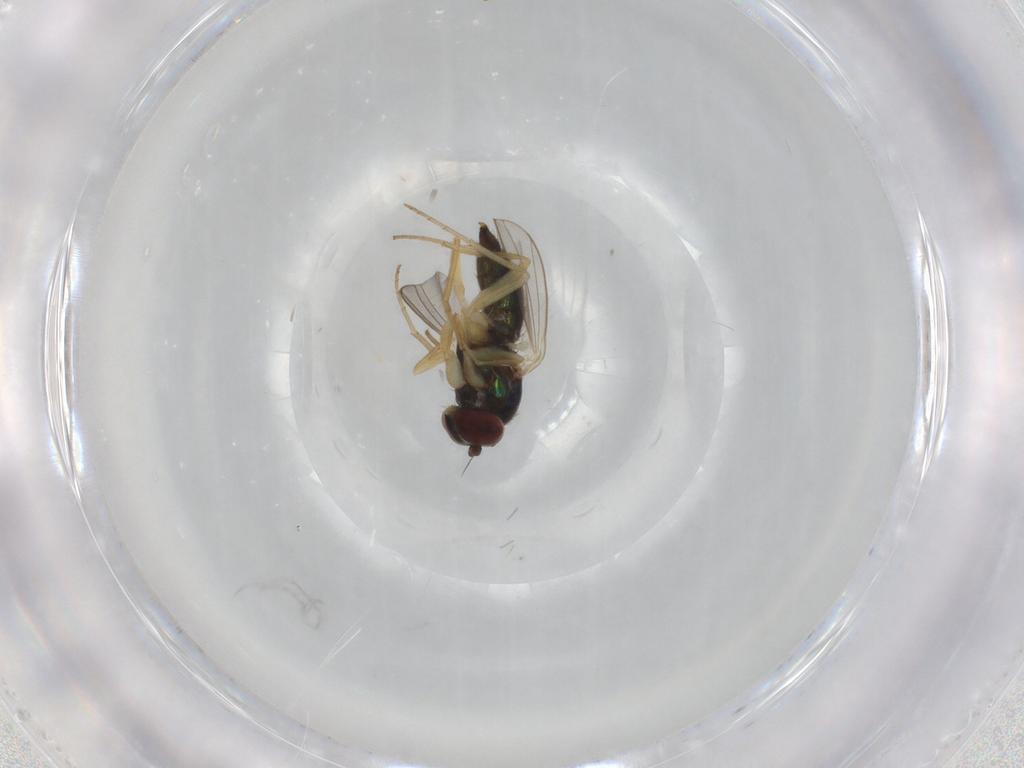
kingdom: Animalia
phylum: Arthropoda
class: Insecta
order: Diptera
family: Dolichopodidae
